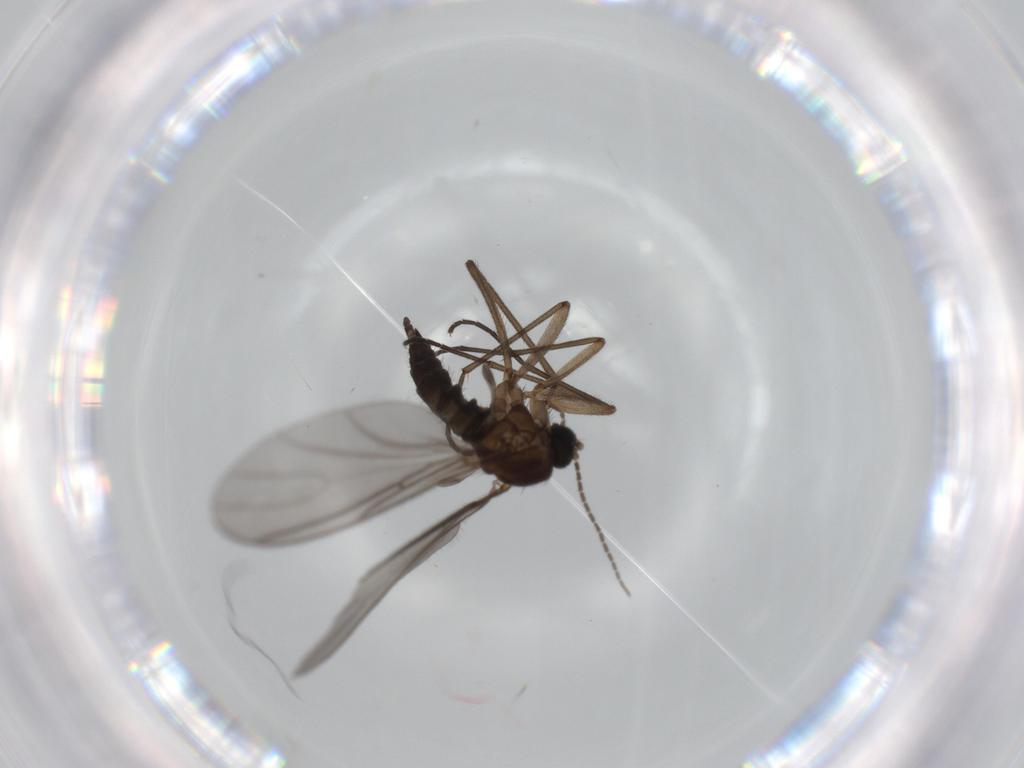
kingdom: Animalia
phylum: Arthropoda
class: Insecta
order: Diptera
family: Sciaridae
